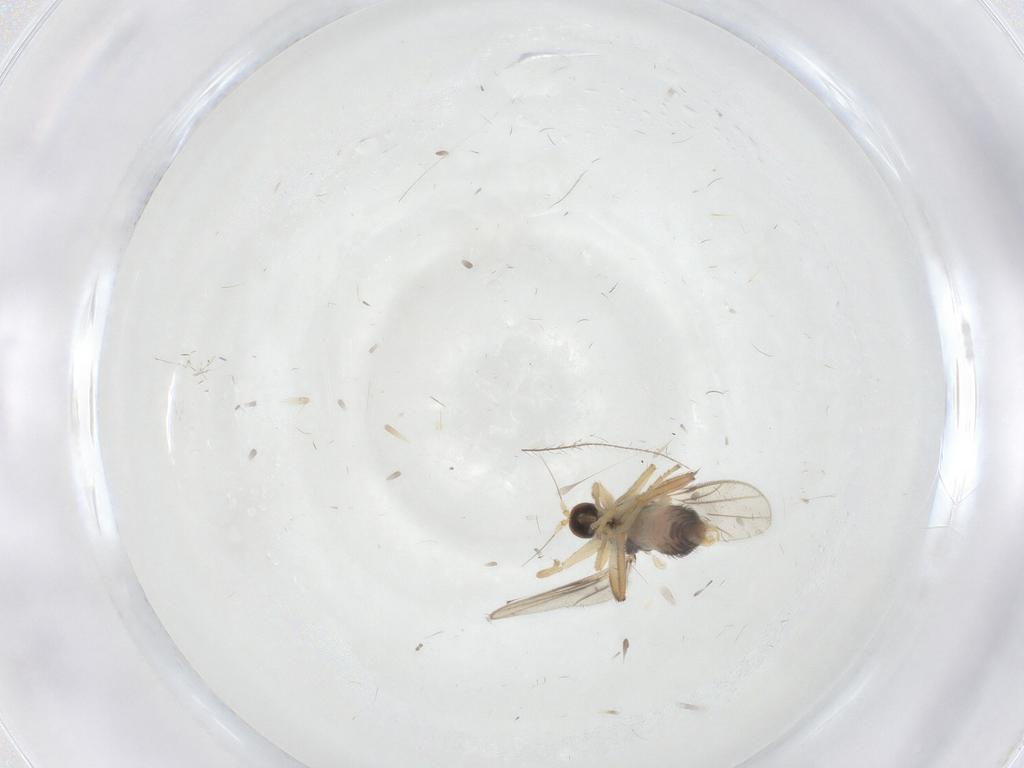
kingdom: Animalia
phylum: Arthropoda
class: Insecta
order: Diptera
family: Hybotidae
